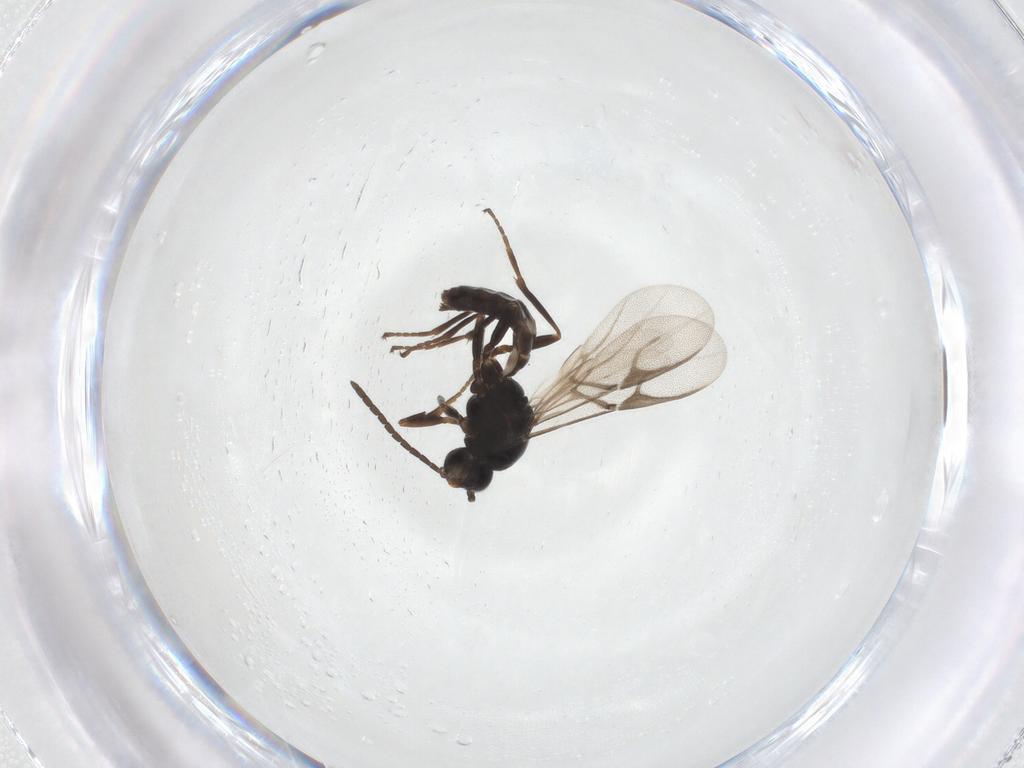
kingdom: Animalia
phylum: Arthropoda
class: Insecta
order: Hymenoptera
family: Braconidae
